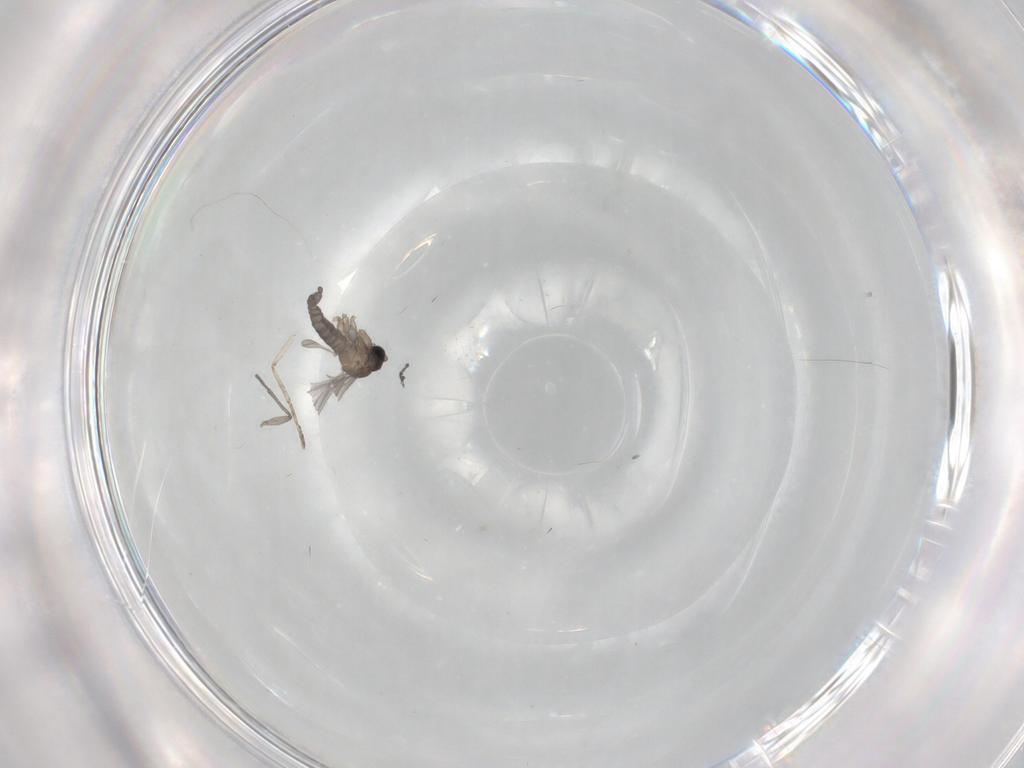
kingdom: Animalia
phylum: Arthropoda
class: Insecta
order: Diptera
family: Sciaridae
